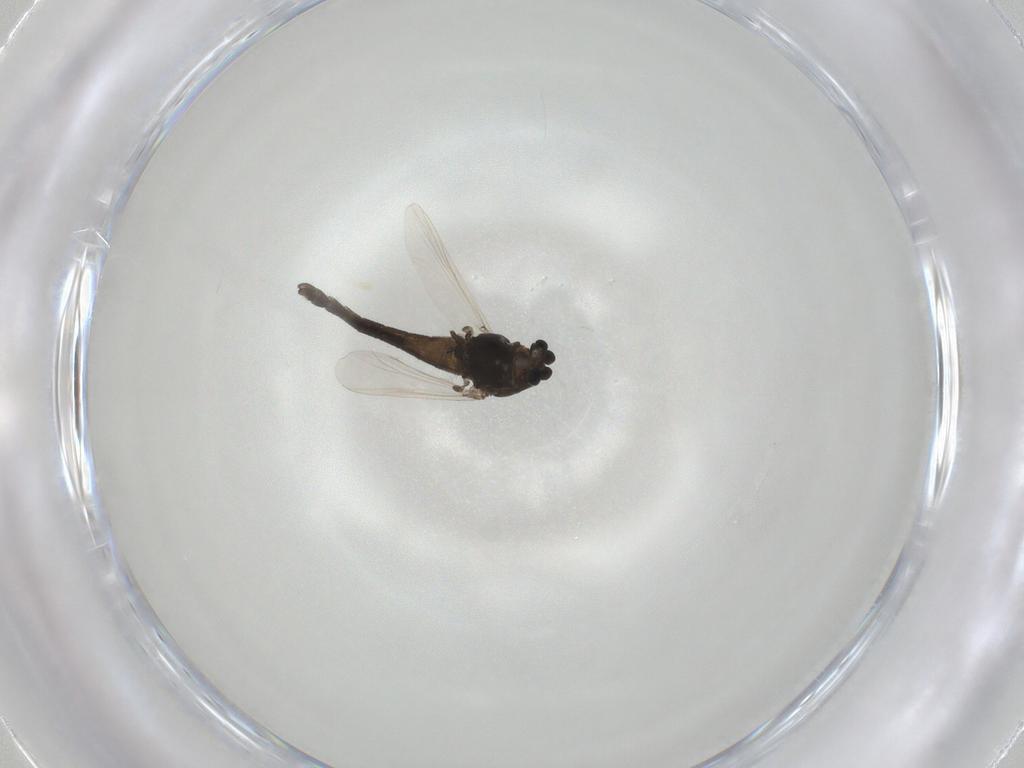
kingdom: Animalia
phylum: Arthropoda
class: Insecta
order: Diptera
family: Chironomidae
